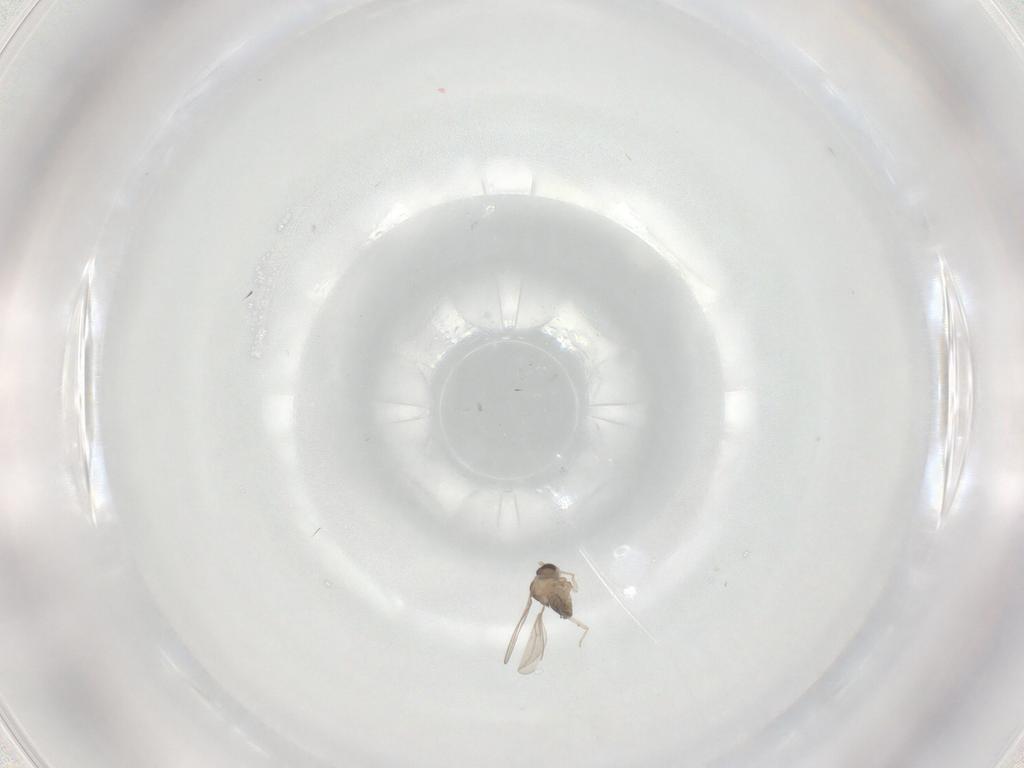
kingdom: Animalia
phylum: Arthropoda
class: Insecta
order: Diptera
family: Cecidomyiidae
